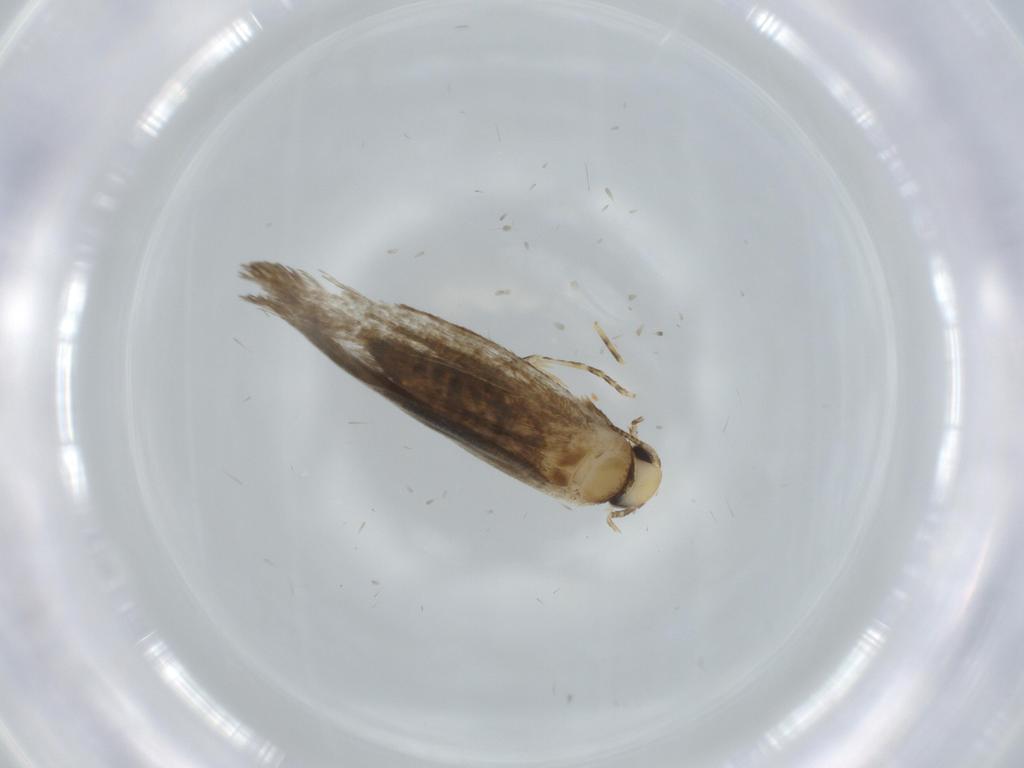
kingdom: Animalia
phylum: Arthropoda
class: Insecta
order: Lepidoptera
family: Tineidae
